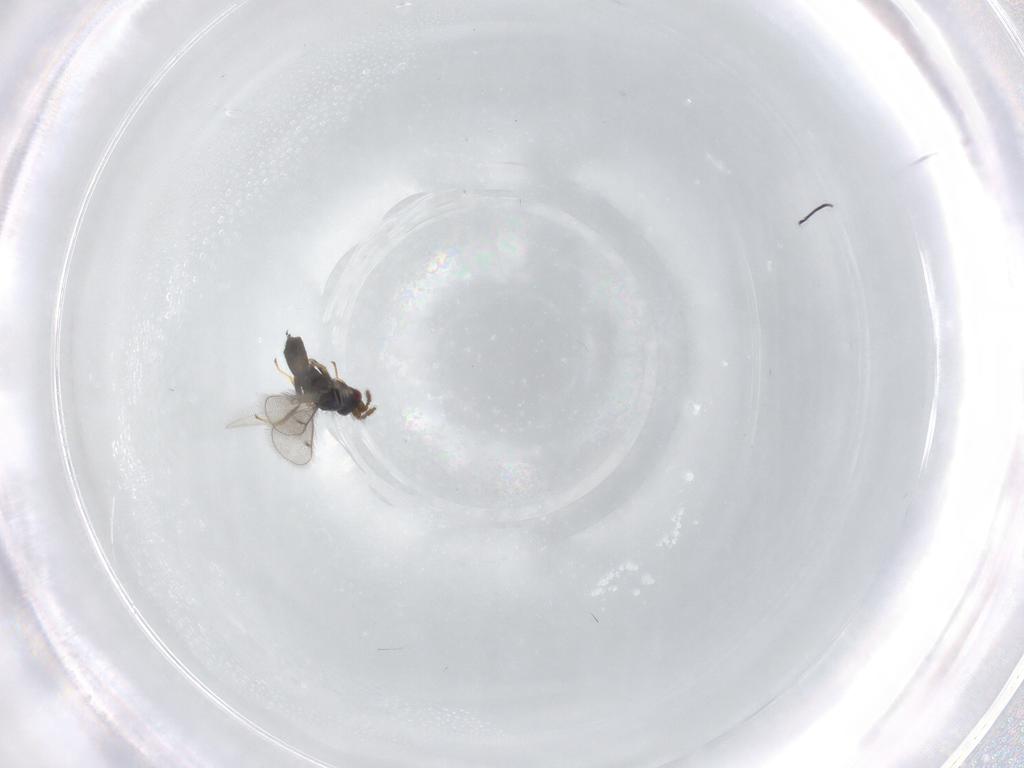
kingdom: Animalia
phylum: Arthropoda
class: Insecta
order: Hymenoptera
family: Eulophidae
